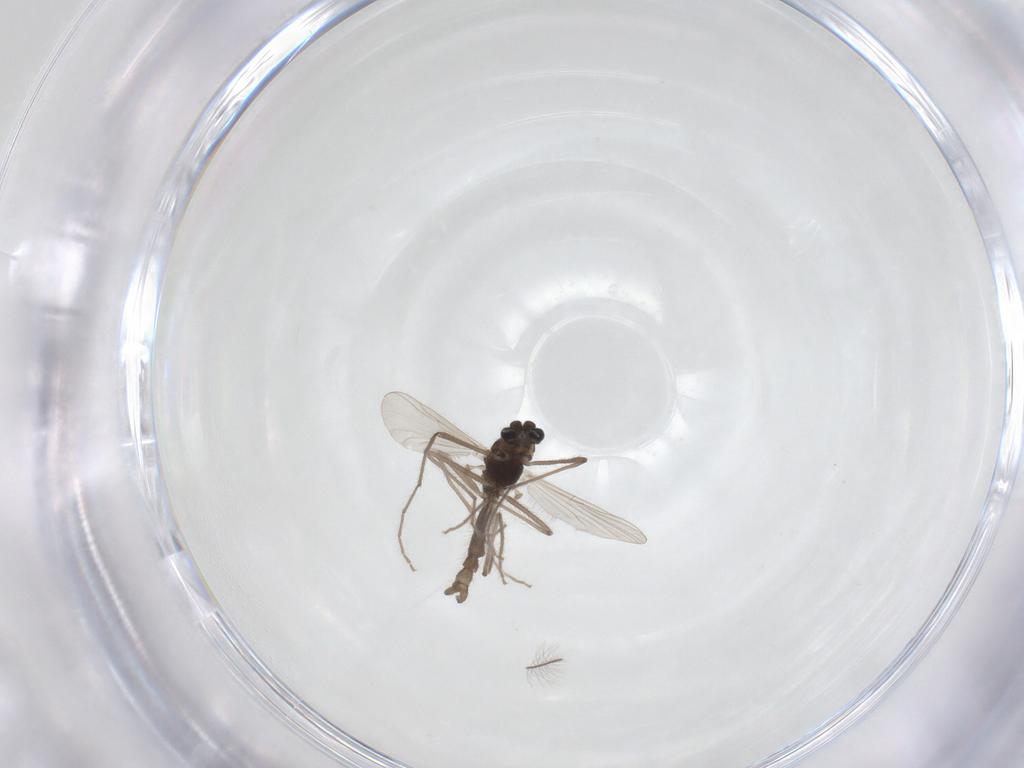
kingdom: Animalia
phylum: Arthropoda
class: Insecta
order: Diptera
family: Chironomidae
